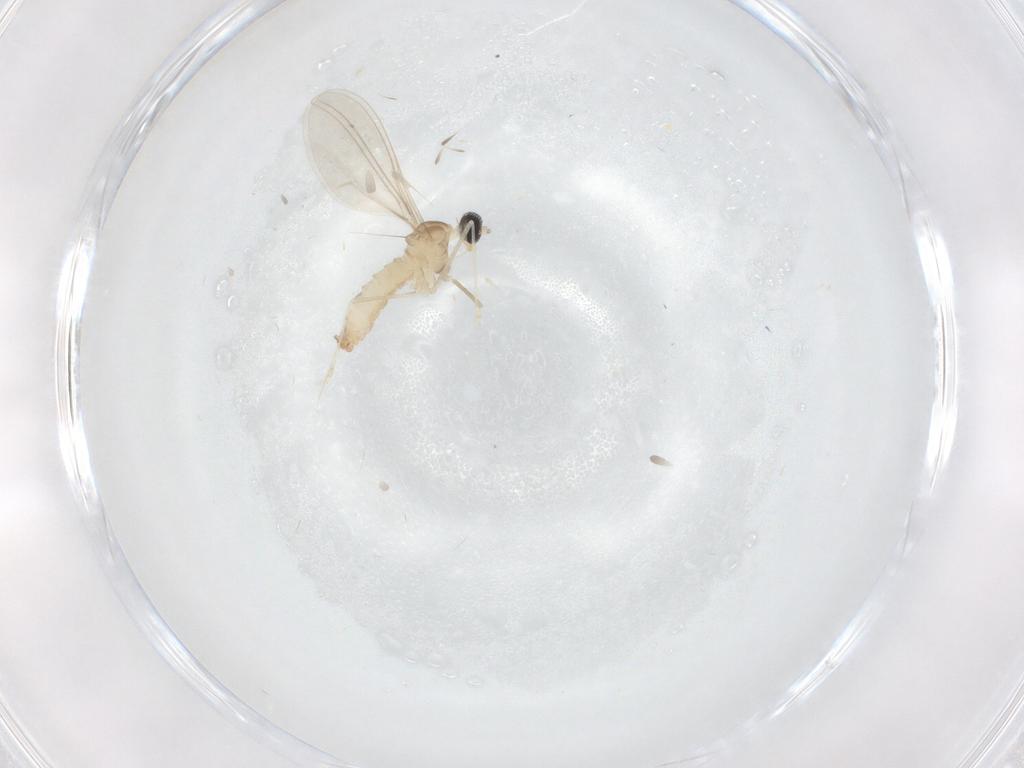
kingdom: Animalia
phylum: Arthropoda
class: Insecta
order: Diptera
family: Cecidomyiidae
